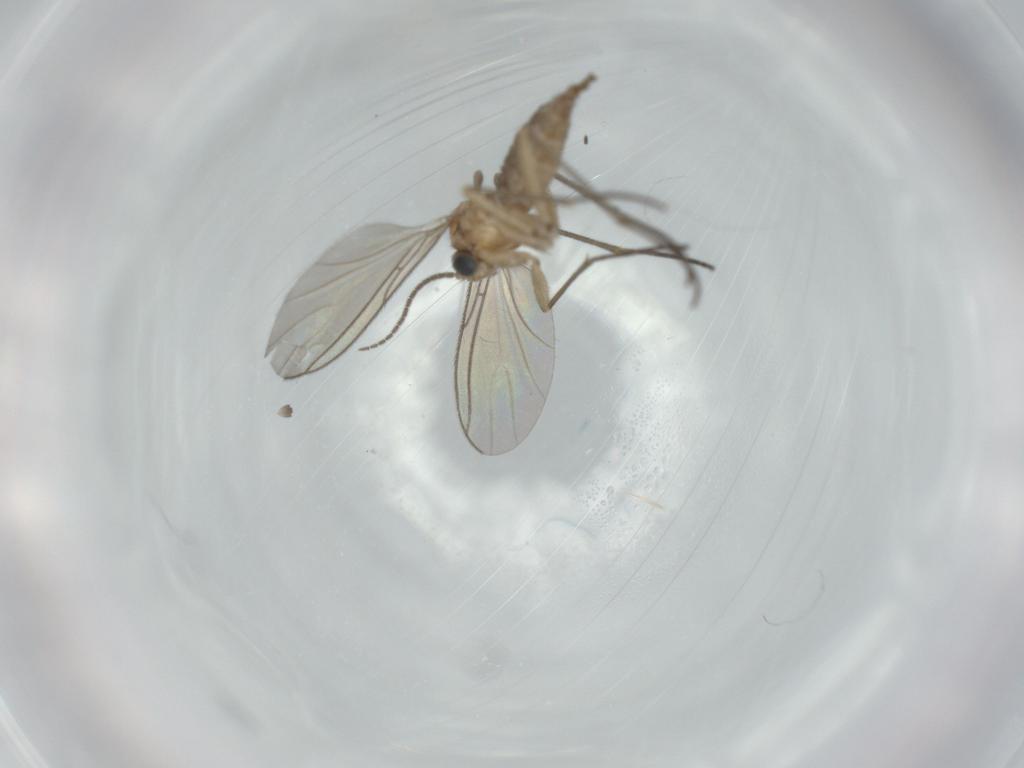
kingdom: Animalia
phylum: Arthropoda
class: Insecta
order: Diptera
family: Sciaridae
